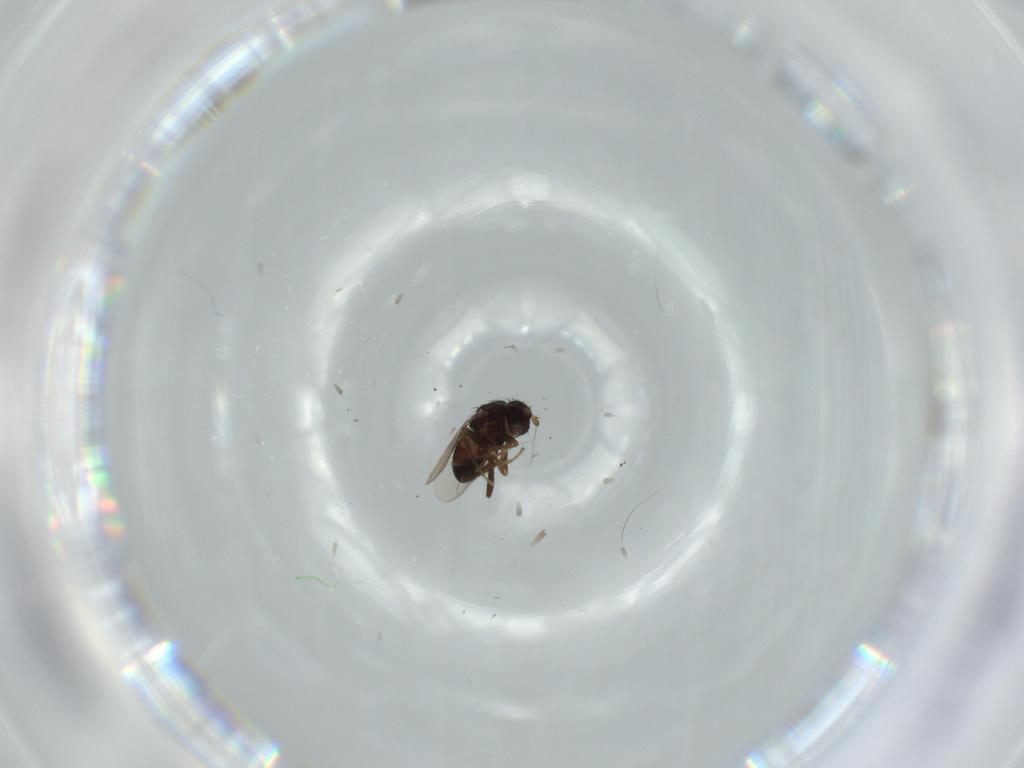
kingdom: Animalia
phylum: Arthropoda
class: Insecta
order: Diptera
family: Sphaeroceridae
